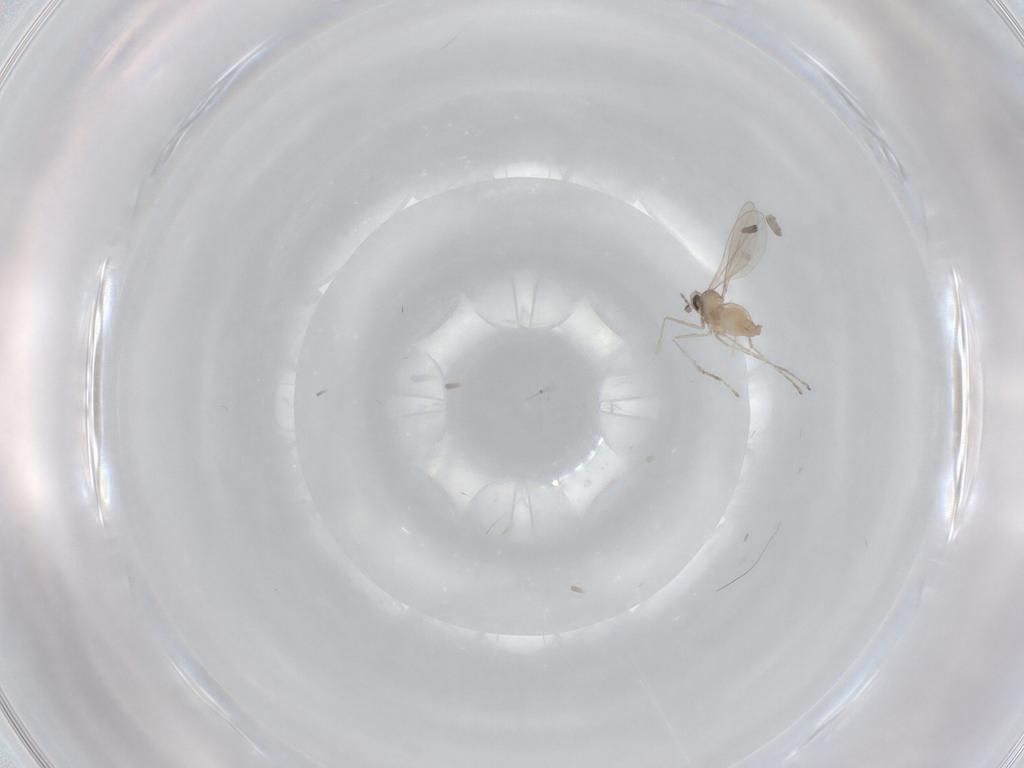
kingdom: Animalia
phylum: Arthropoda
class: Insecta
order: Diptera
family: Cecidomyiidae
